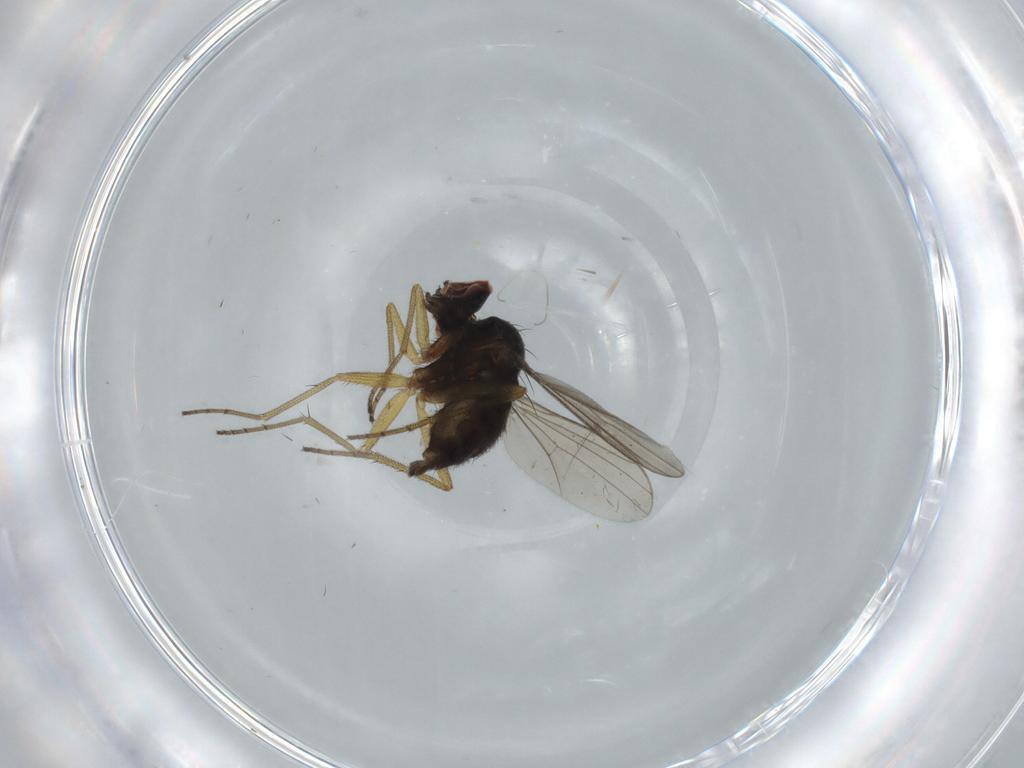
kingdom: Animalia
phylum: Arthropoda
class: Insecta
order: Diptera
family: Dolichopodidae
